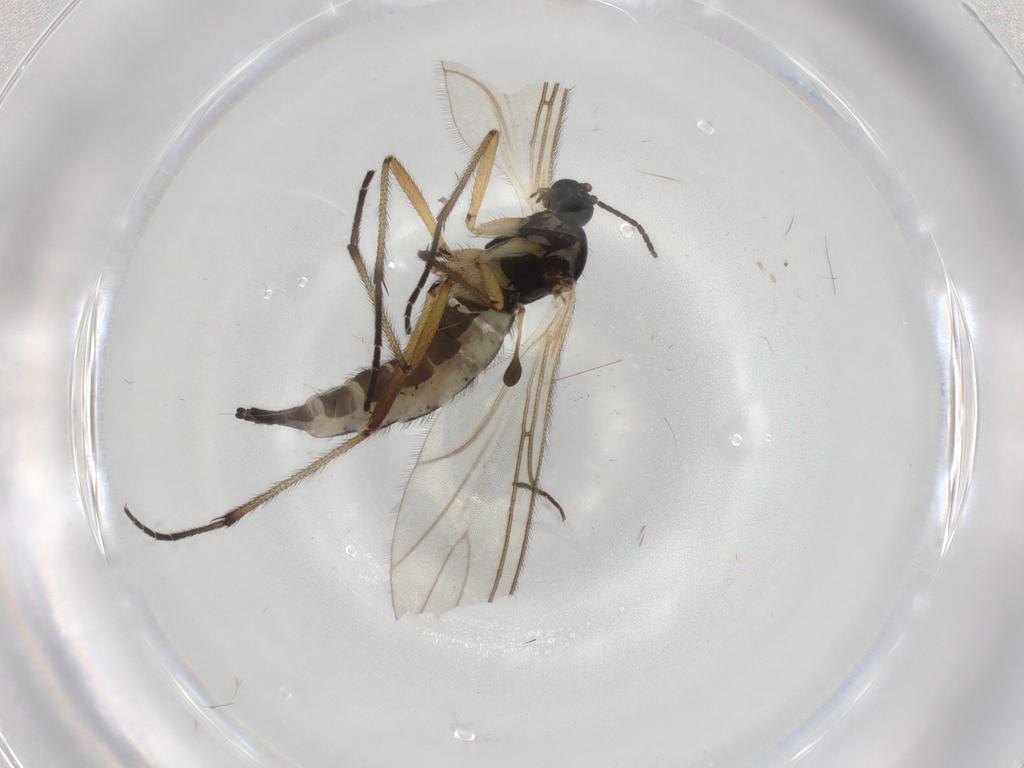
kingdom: Animalia
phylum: Arthropoda
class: Insecta
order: Diptera
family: Sciaridae
